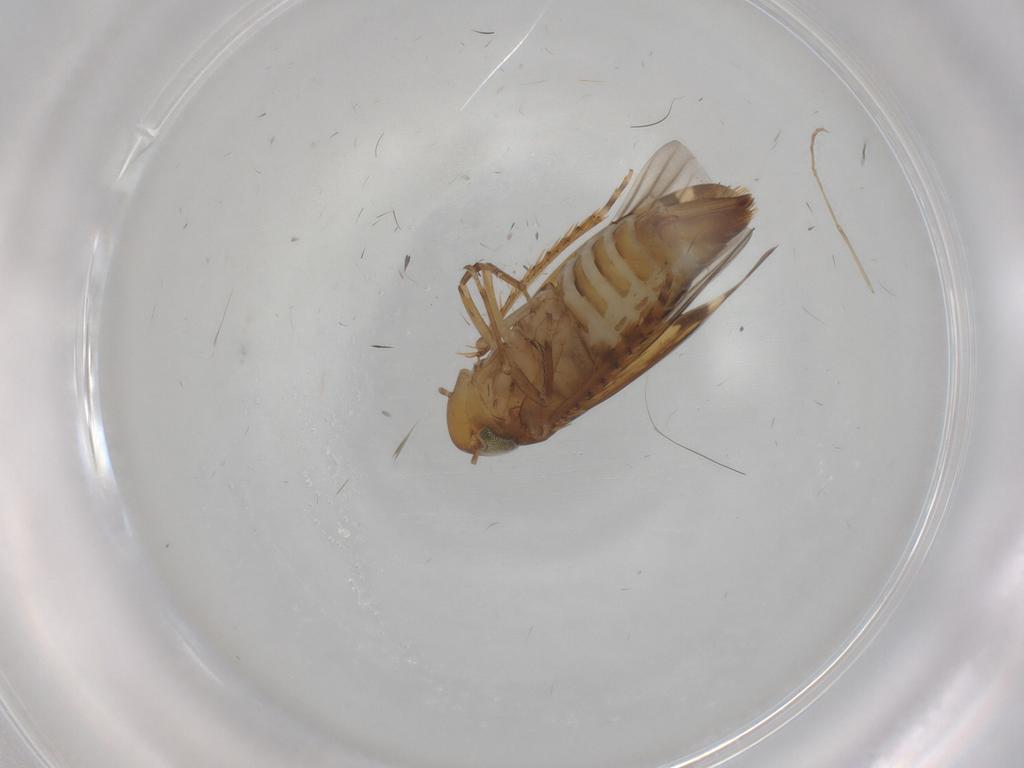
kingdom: Animalia
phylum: Arthropoda
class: Insecta
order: Hemiptera
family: Cicadellidae
